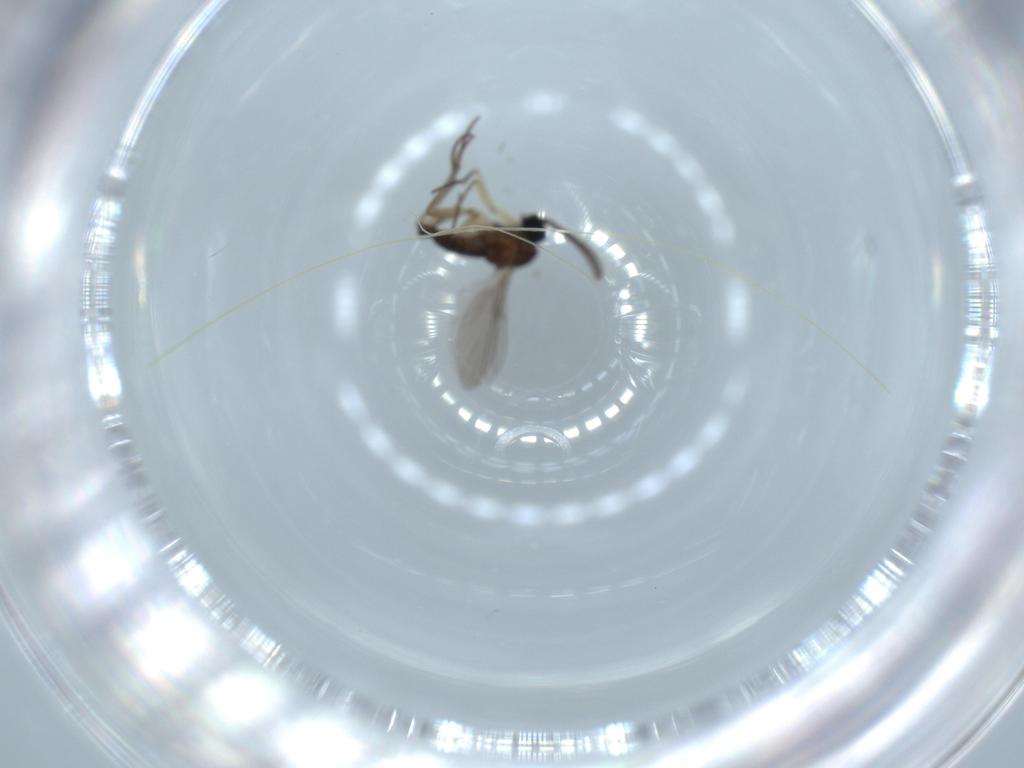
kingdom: Animalia
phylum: Arthropoda
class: Insecta
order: Diptera
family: Sciaridae
